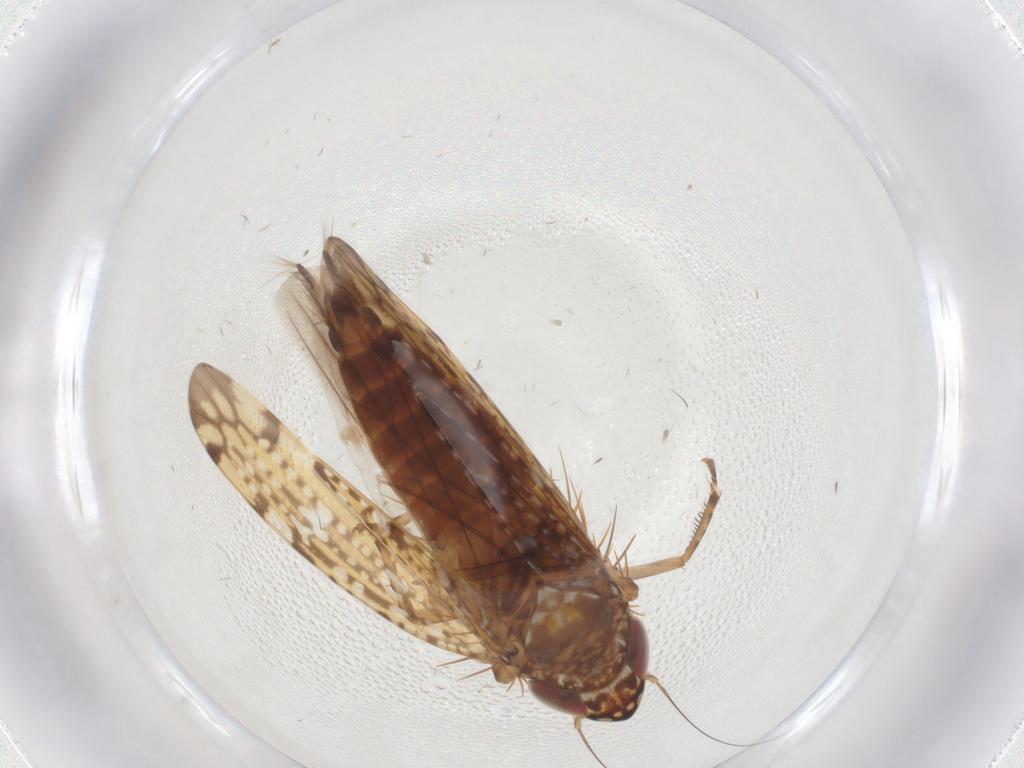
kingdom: Animalia
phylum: Arthropoda
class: Insecta
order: Hemiptera
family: Cicadellidae
